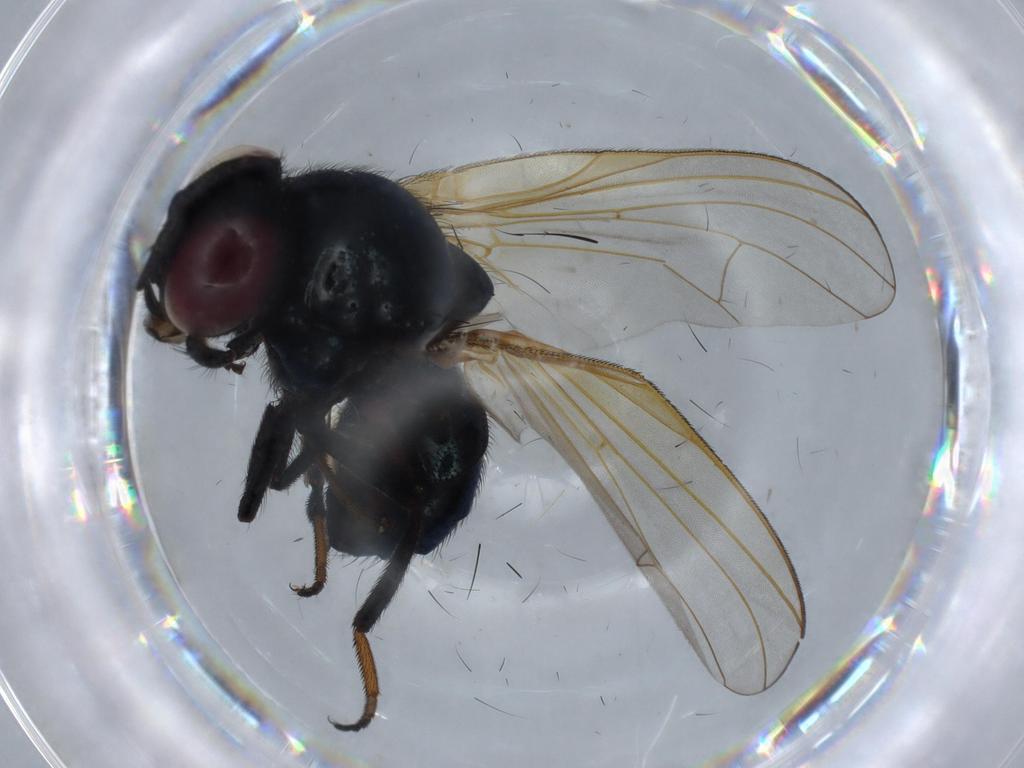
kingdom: Animalia
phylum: Arthropoda
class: Insecta
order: Diptera
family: Lonchaeidae
